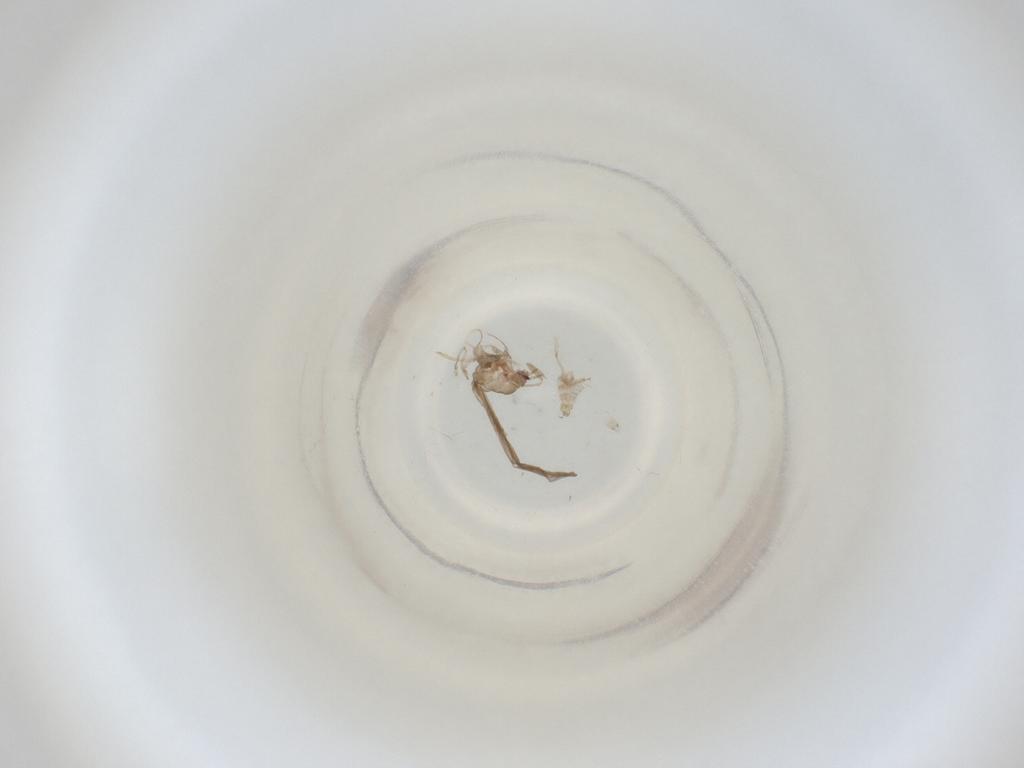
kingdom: Animalia
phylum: Arthropoda
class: Insecta
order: Diptera
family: Cecidomyiidae
